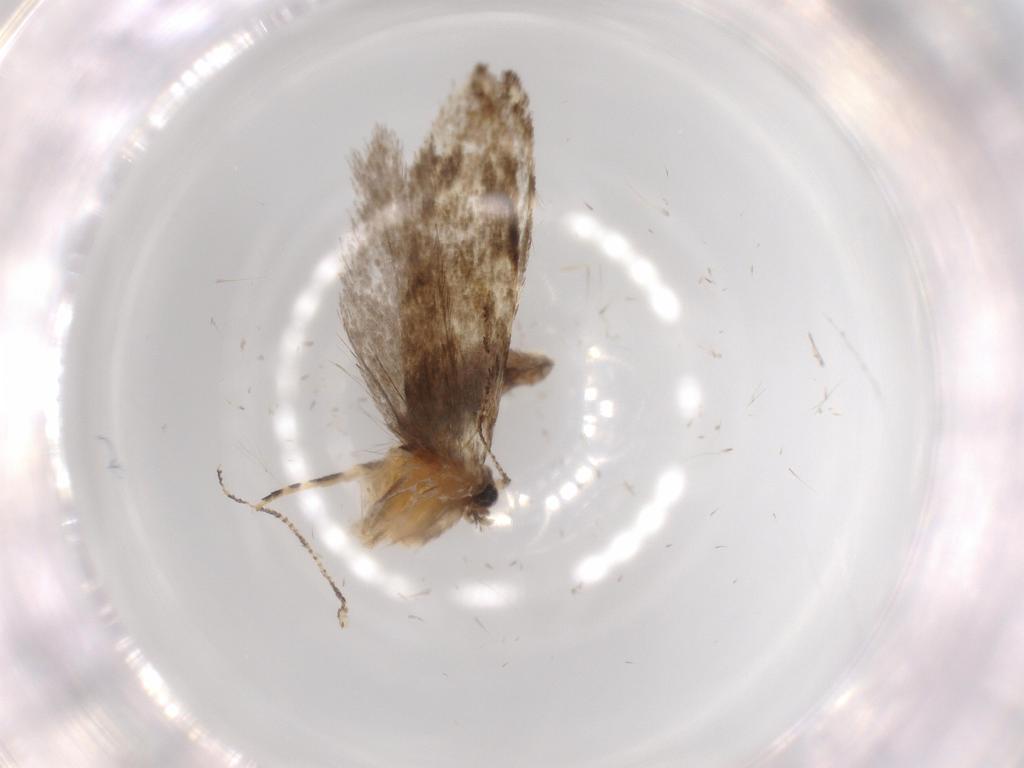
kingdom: Animalia
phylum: Arthropoda
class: Insecta
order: Lepidoptera
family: Tineidae
